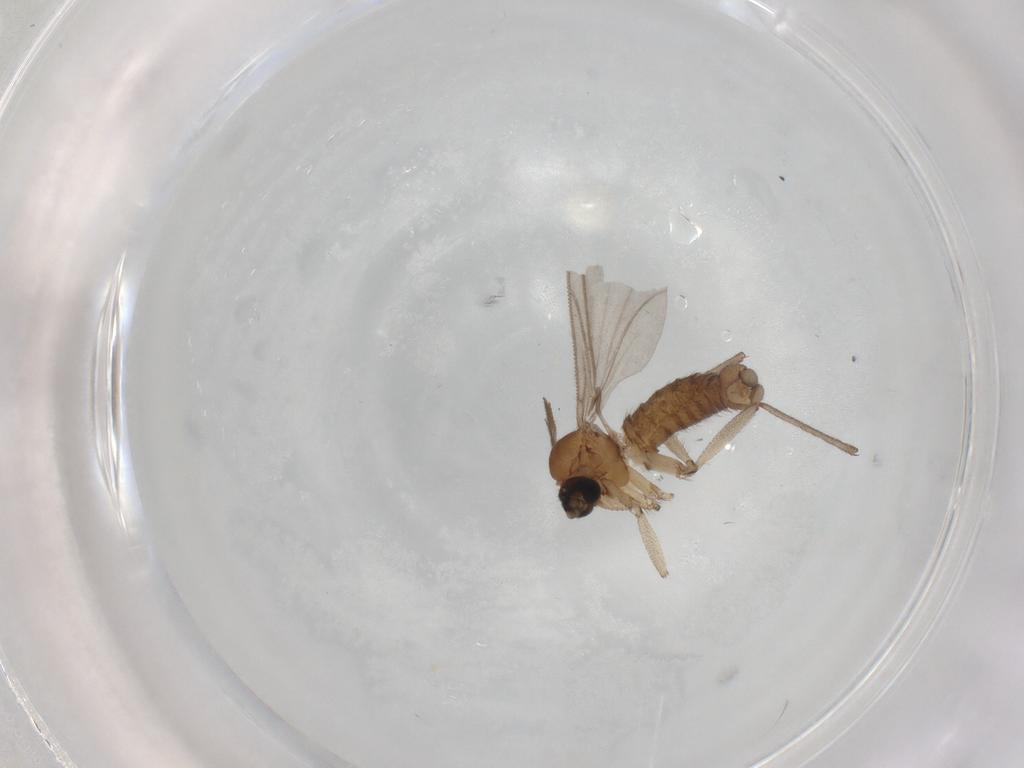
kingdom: Animalia
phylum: Arthropoda
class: Insecta
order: Diptera
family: Sciaridae
